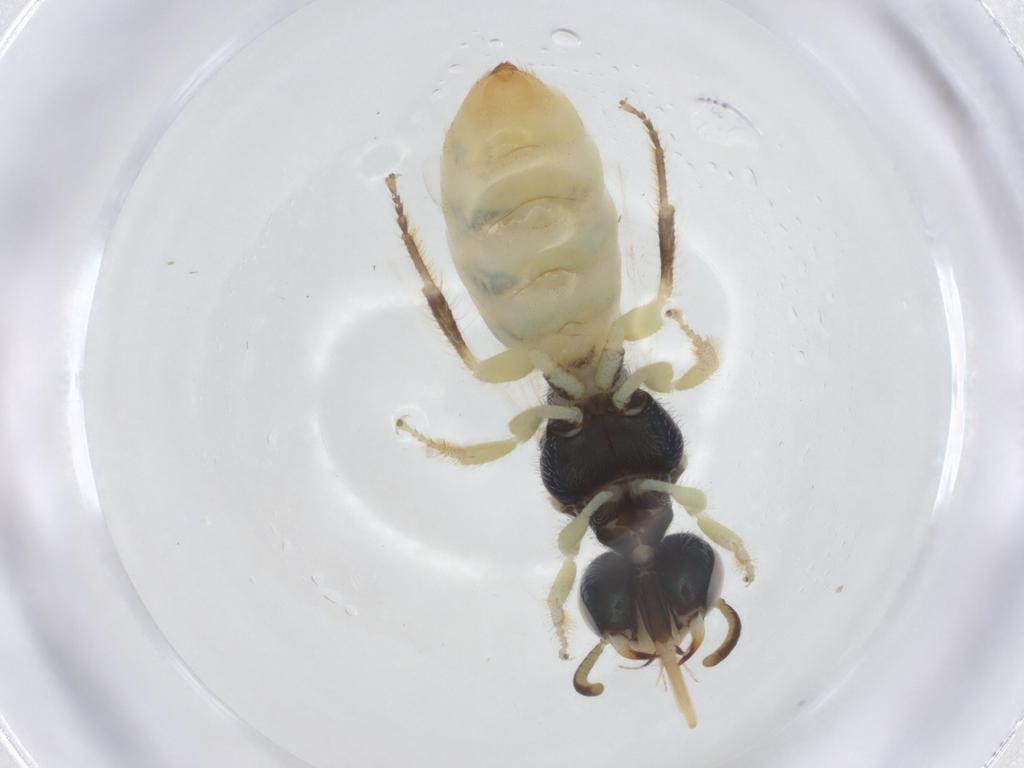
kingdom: Animalia
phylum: Arthropoda
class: Insecta
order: Hymenoptera
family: Andrenidae
